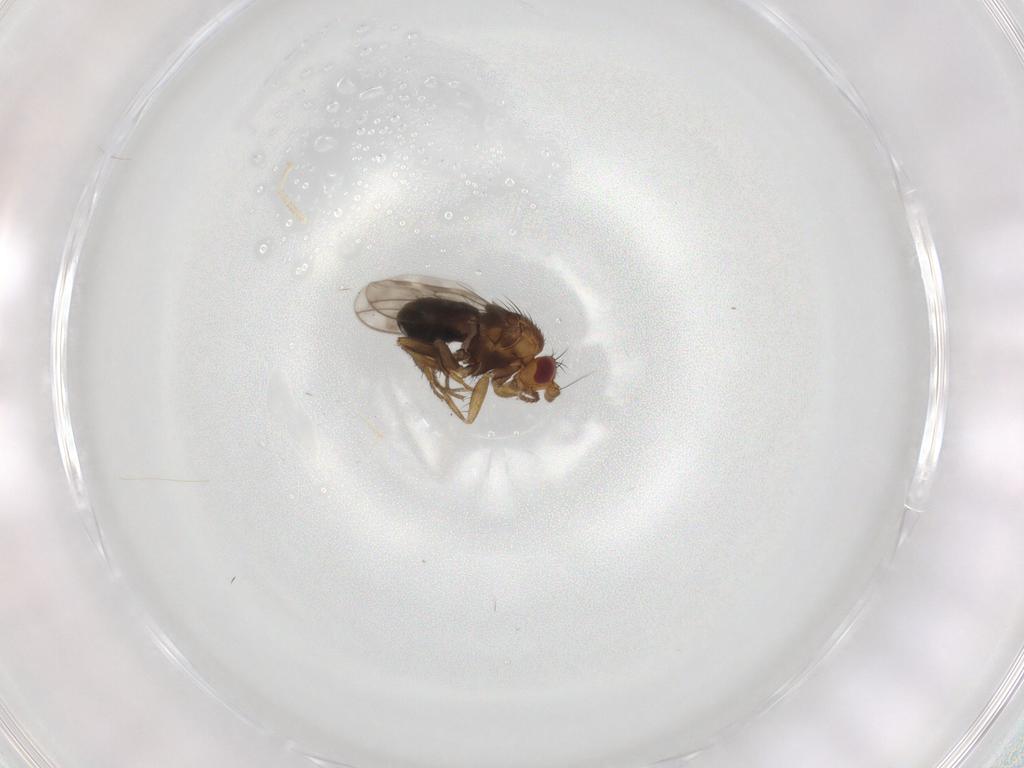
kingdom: Animalia
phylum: Arthropoda
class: Insecta
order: Diptera
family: Sphaeroceridae
